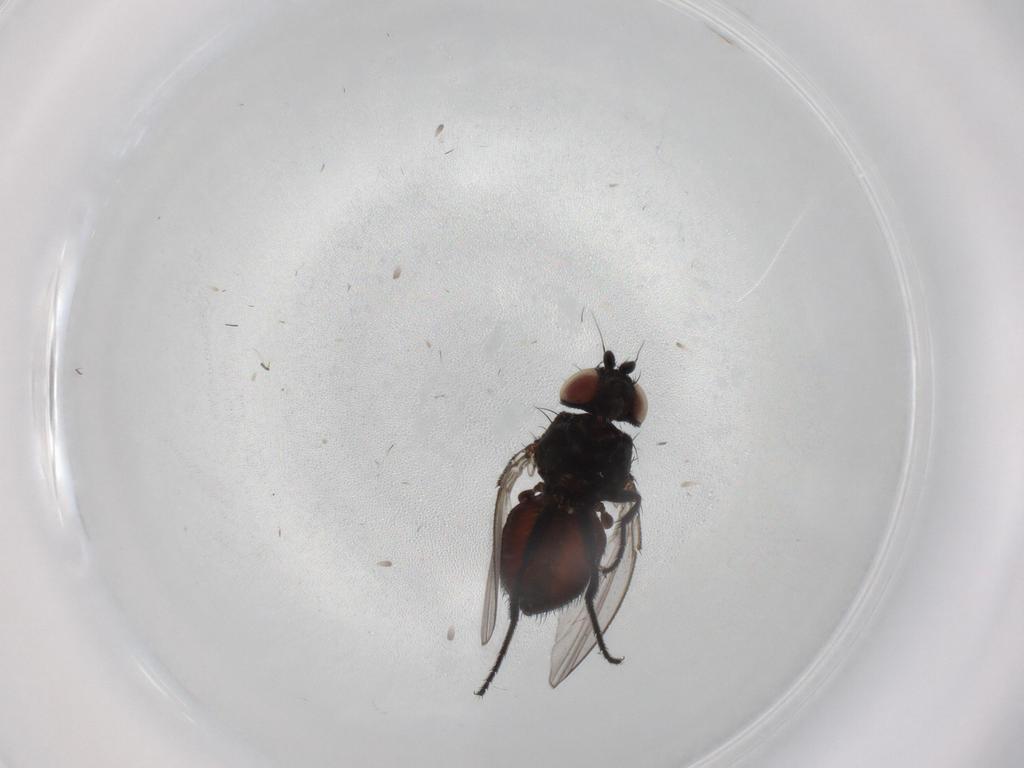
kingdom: Animalia
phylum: Arthropoda
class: Insecta
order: Diptera
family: Milichiidae
